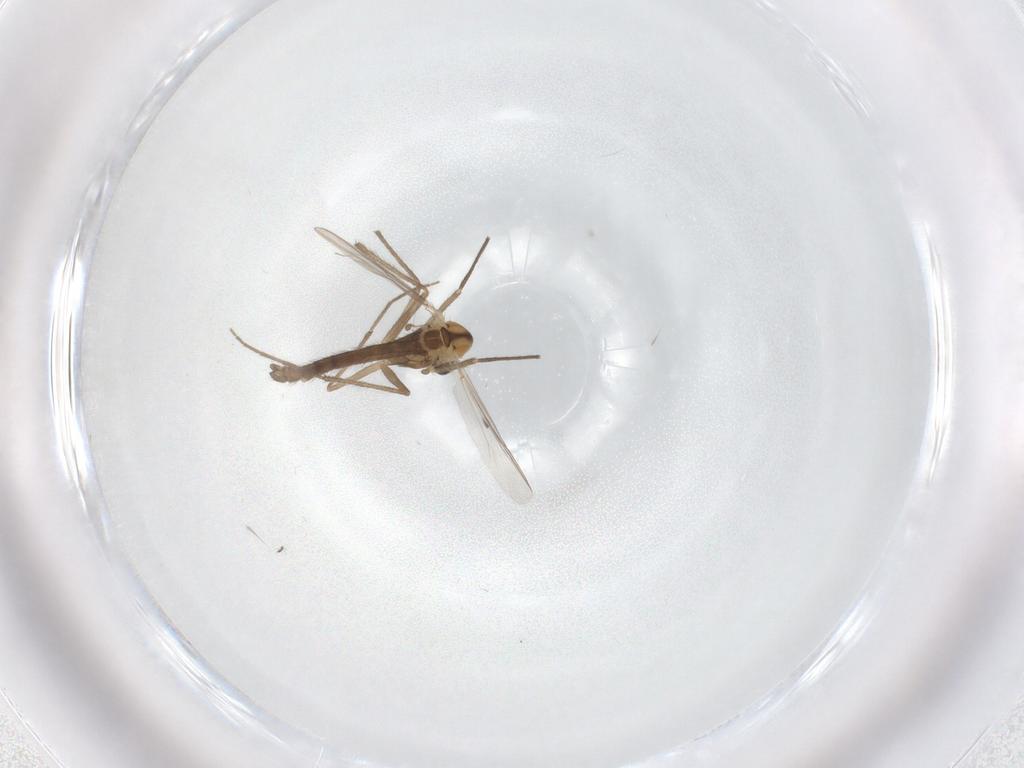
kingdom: Animalia
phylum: Arthropoda
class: Insecta
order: Diptera
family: Chironomidae
